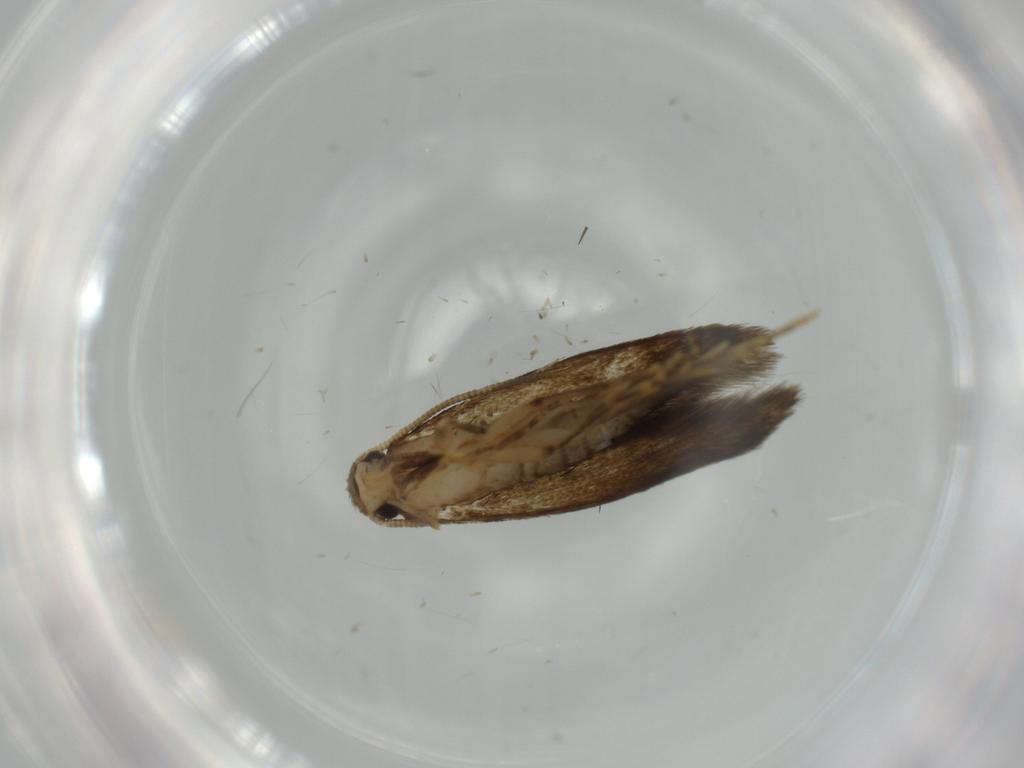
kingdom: Animalia
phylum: Arthropoda
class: Insecta
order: Lepidoptera
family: Tineidae
